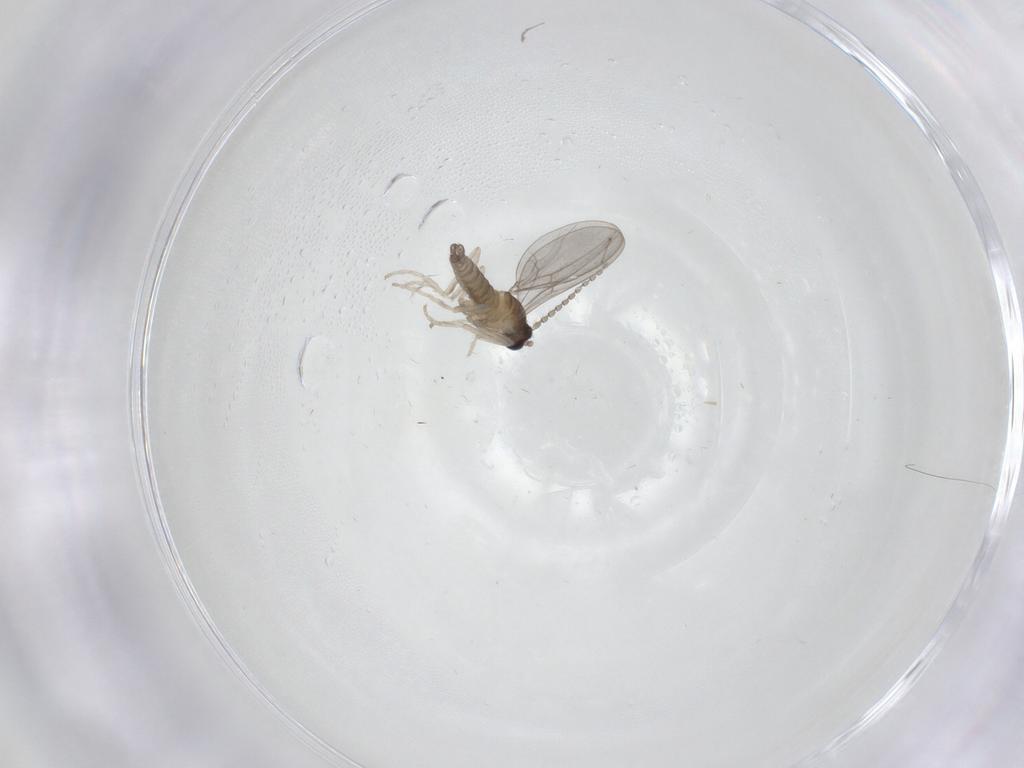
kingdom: Animalia
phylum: Arthropoda
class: Insecta
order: Diptera
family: Cecidomyiidae
